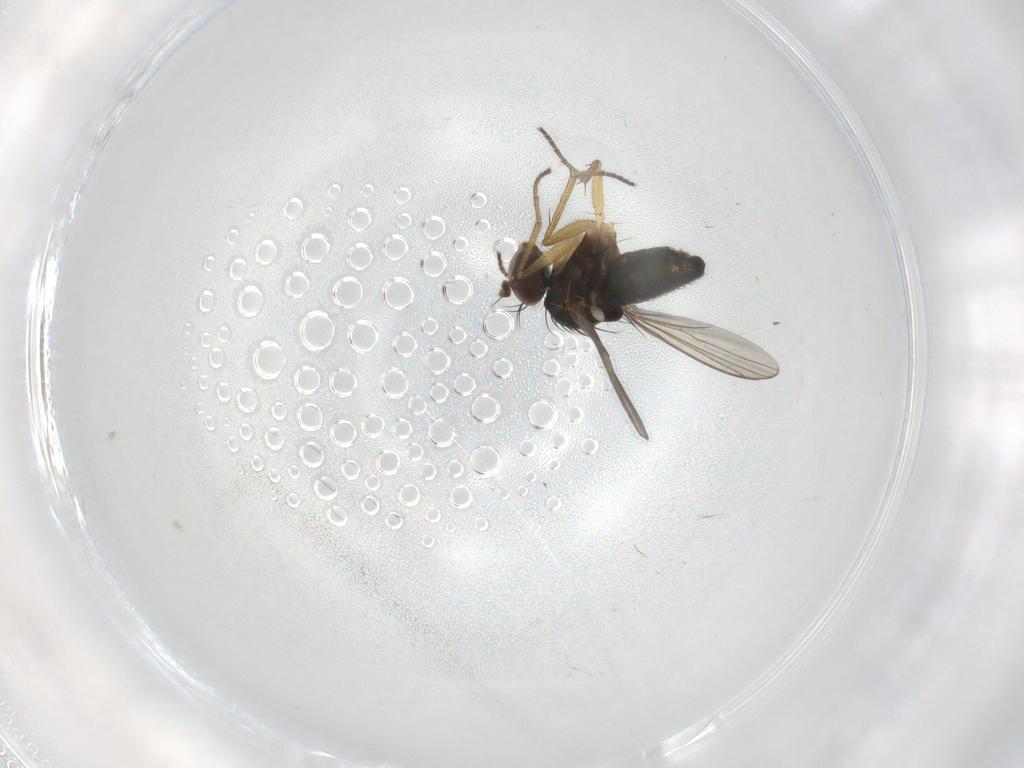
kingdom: Animalia
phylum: Arthropoda
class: Insecta
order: Diptera
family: Dolichopodidae
